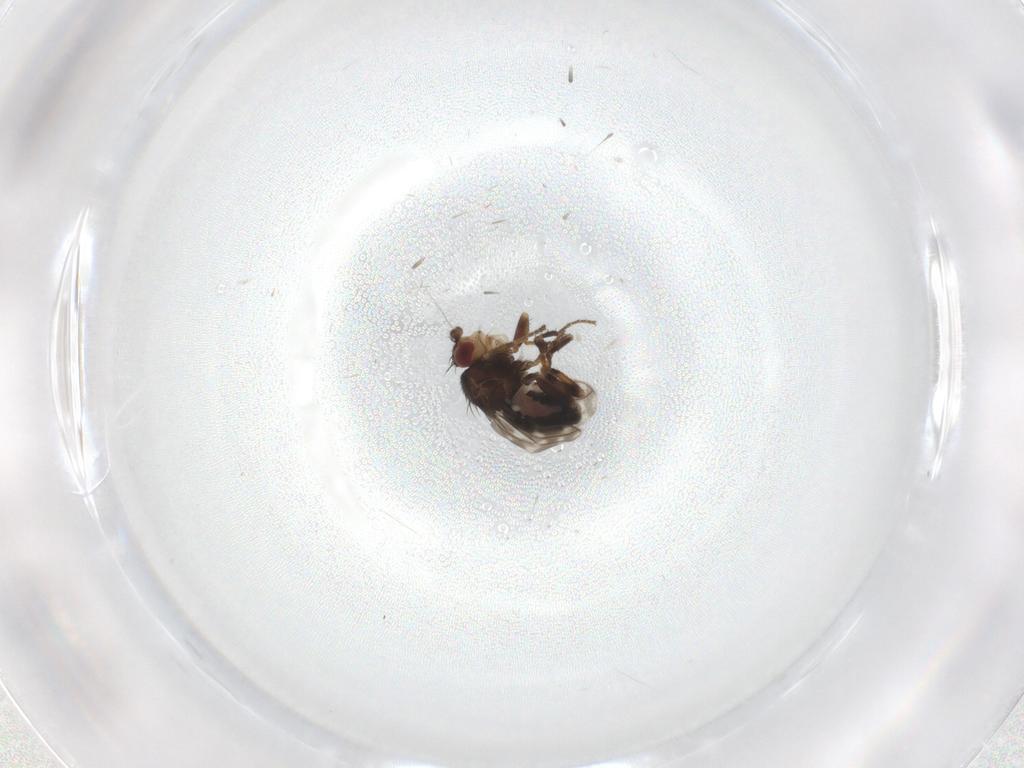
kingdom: Animalia
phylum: Arthropoda
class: Insecta
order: Diptera
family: Sphaeroceridae
